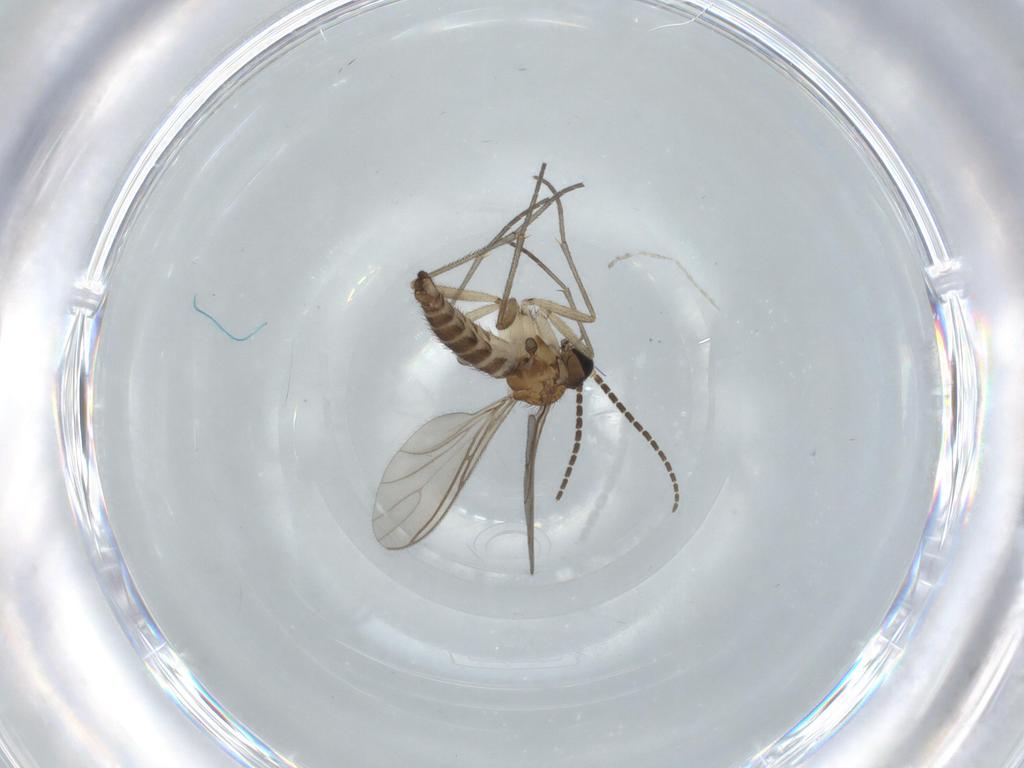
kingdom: Animalia
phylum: Arthropoda
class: Insecta
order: Diptera
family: Sciaridae
